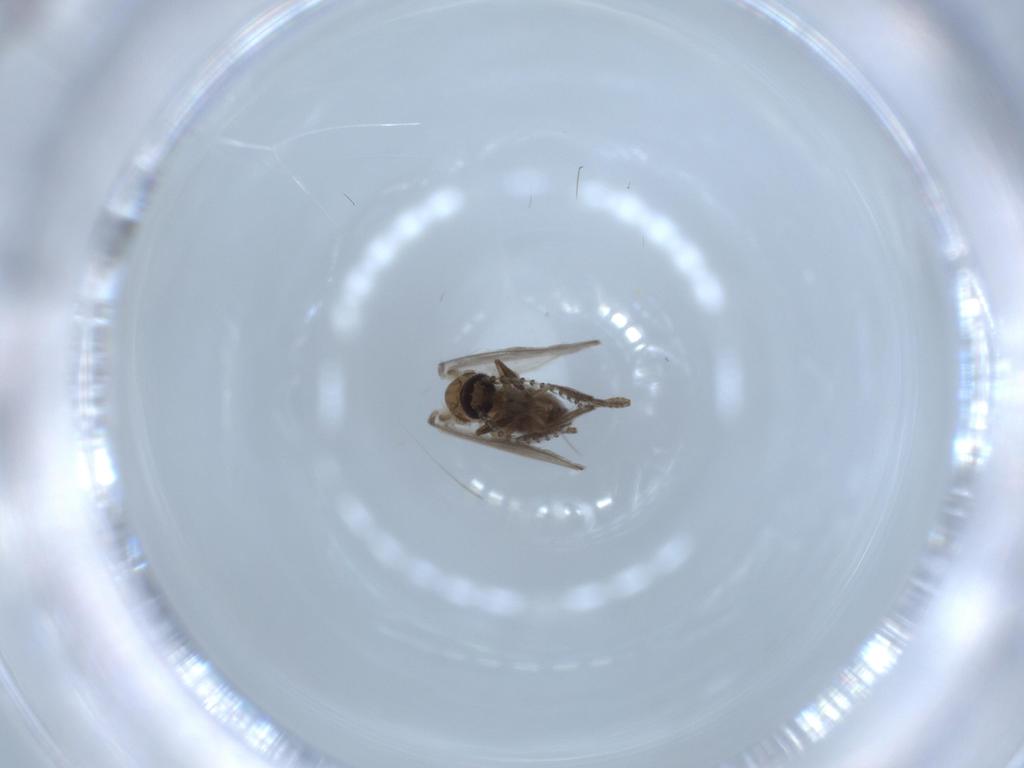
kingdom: Animalia
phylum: Arthropoda
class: Insecta
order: Diptera
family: Psychodidae
